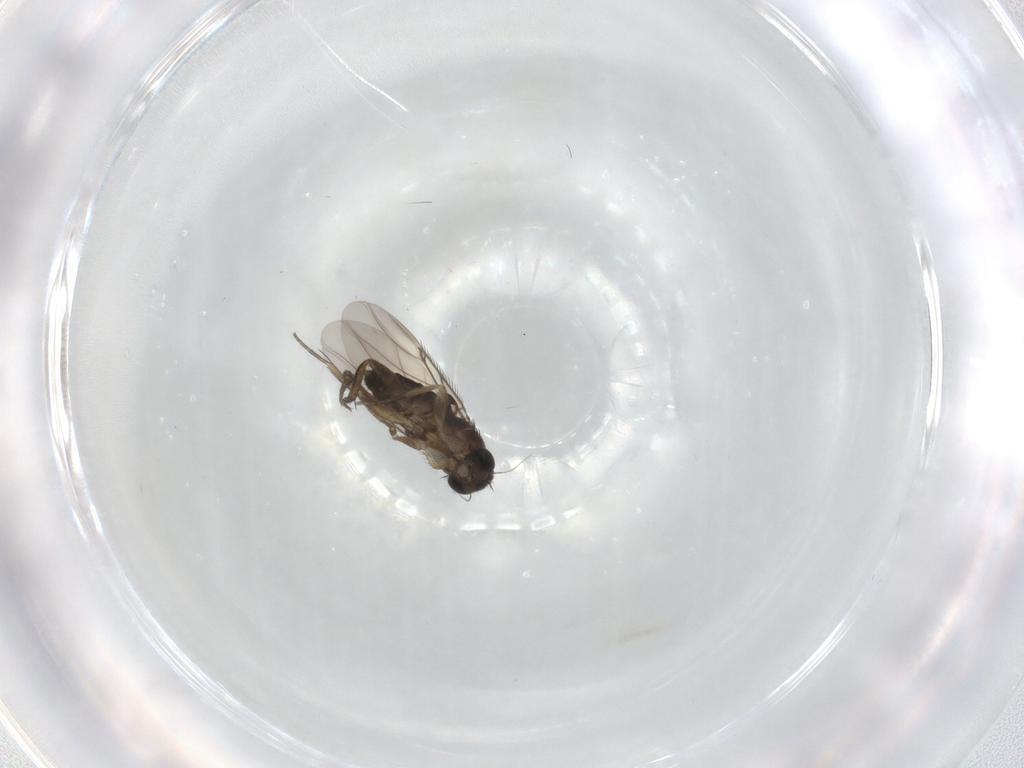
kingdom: Animalia
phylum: Arthropoda
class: Insecta
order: Diptera
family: Phoridae
